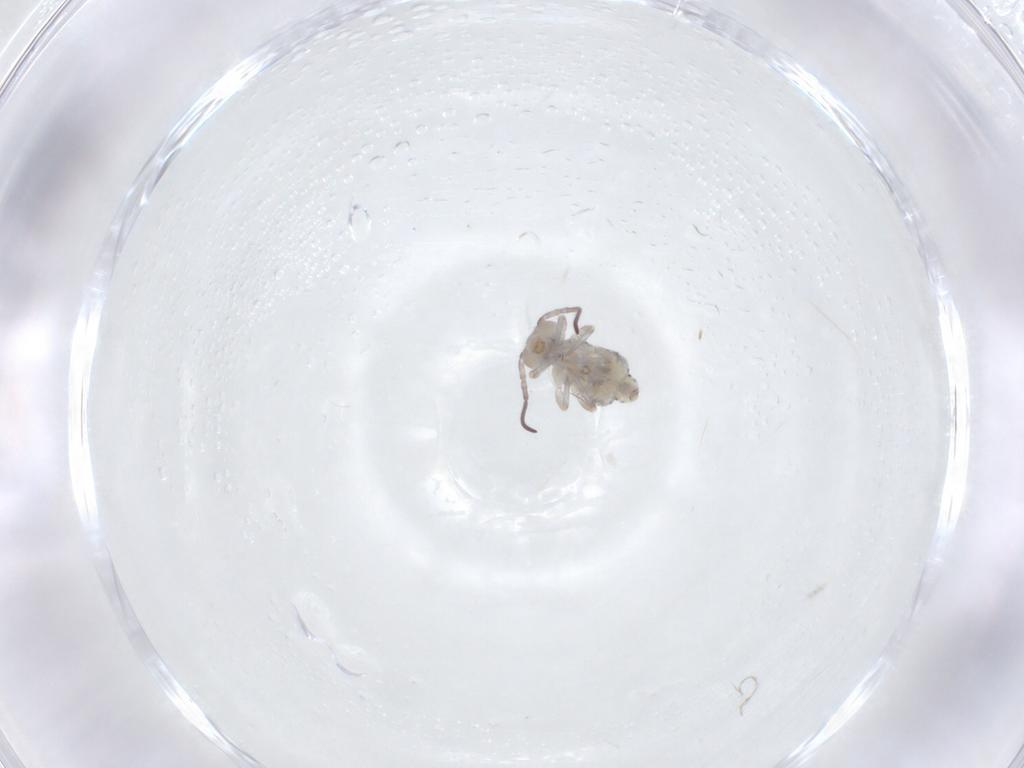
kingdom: Animalia
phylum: Arthropoda
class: Collembola
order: Symphypleona
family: Bourletiellidae
